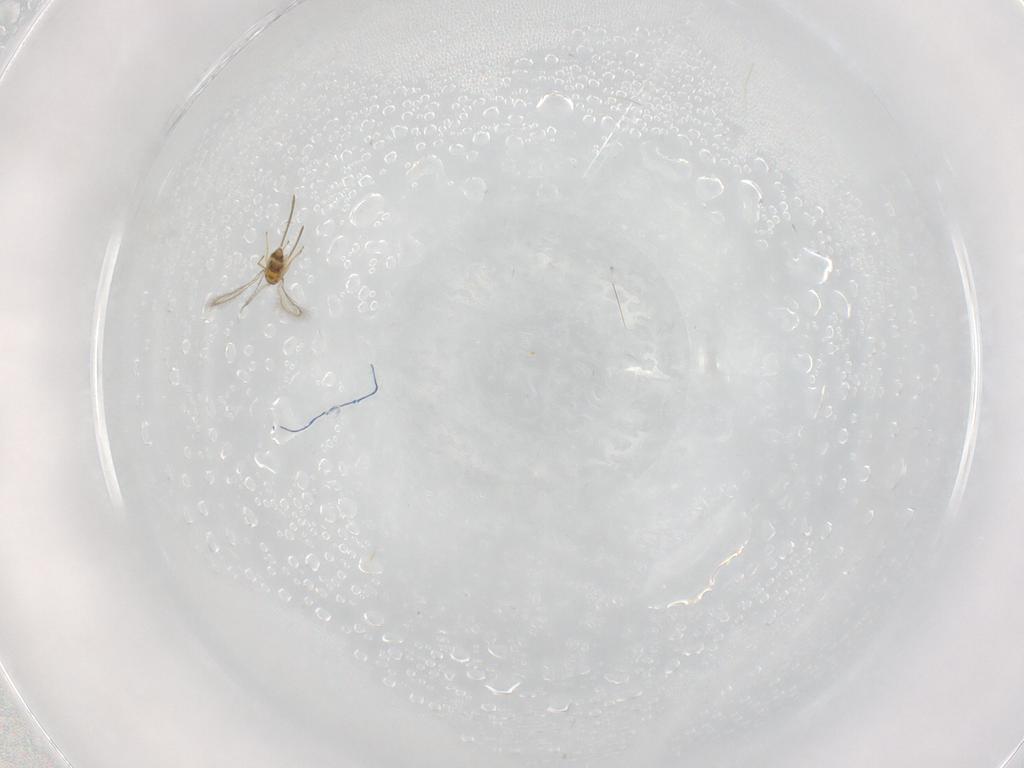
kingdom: Animalia
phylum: Arthropoda
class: Insecta
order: Hymenoptera
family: Mymaridae
